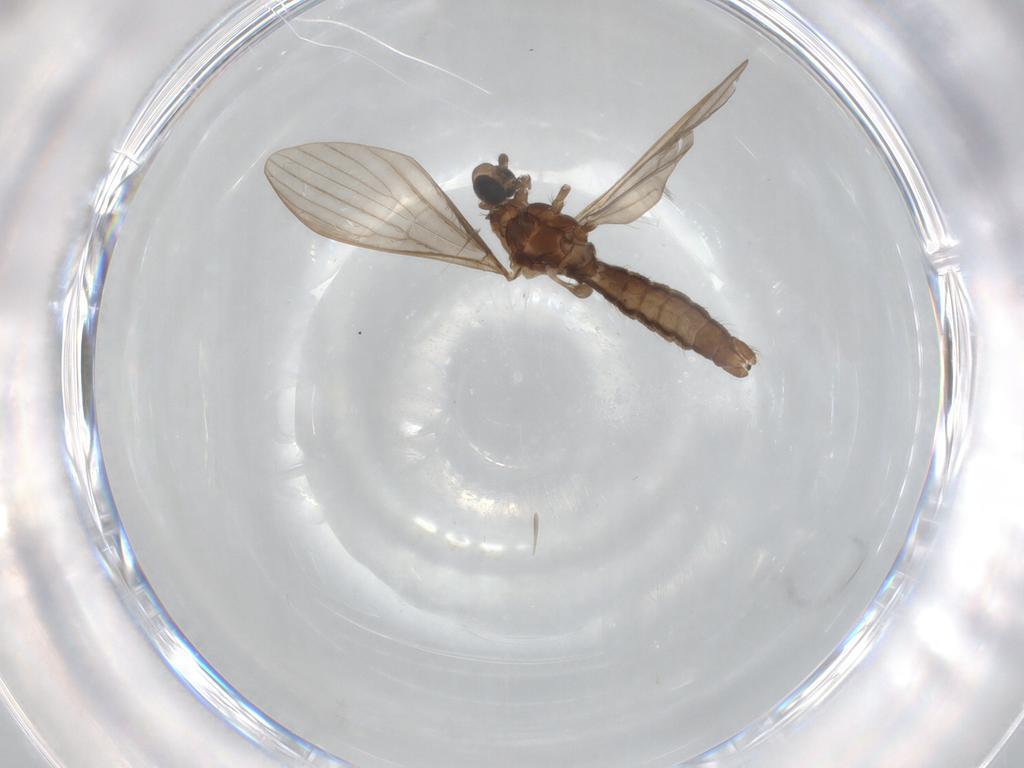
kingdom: Animalia
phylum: Arthropoda
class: Insecta
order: Diptera
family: Limoniidae
